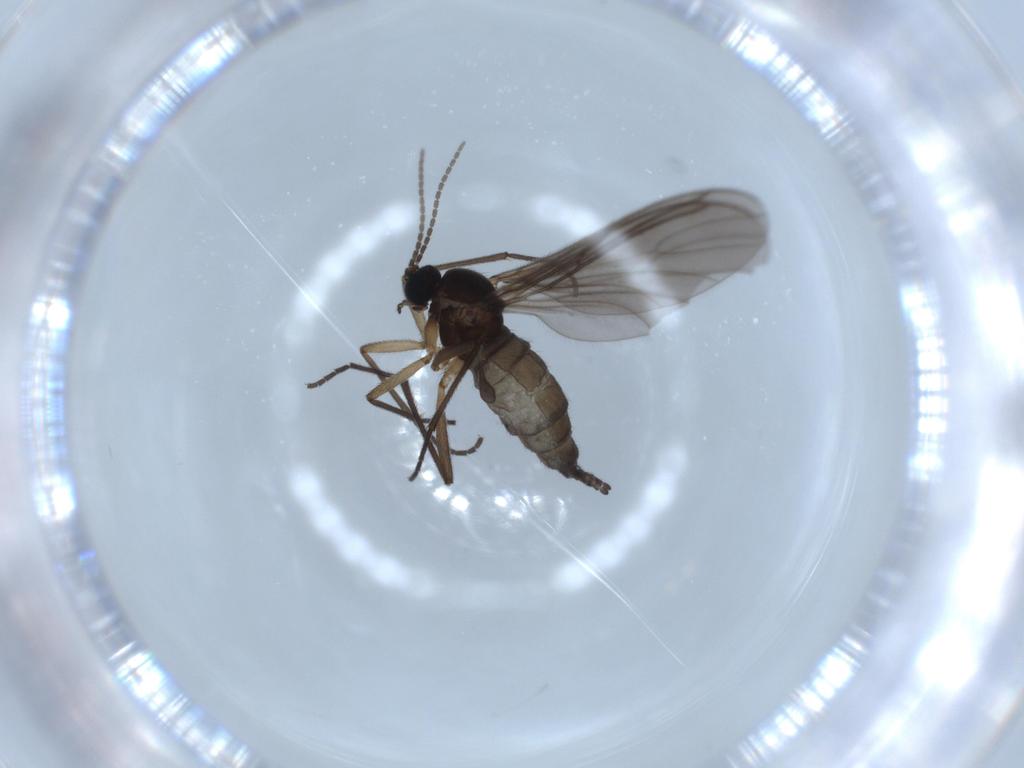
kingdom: Animalia
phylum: Arthropoda
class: Insecta
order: Diptera
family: Sciaridae
